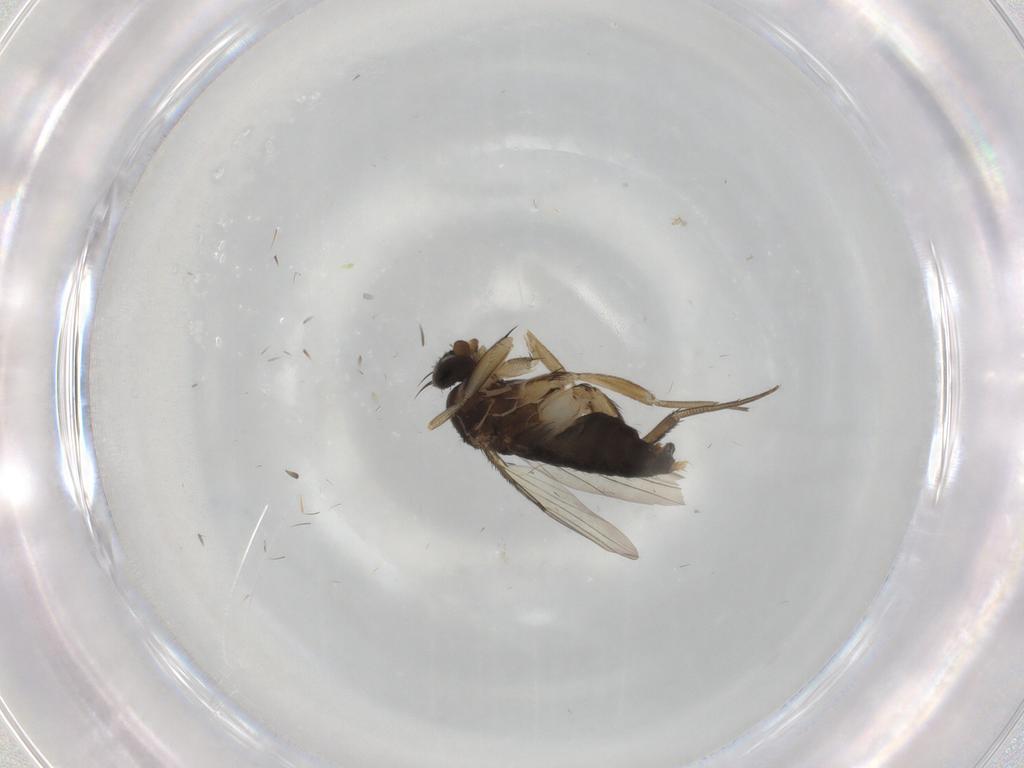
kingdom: Animalia
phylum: Arthropoda
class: Insecta
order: Diptera
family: Phoridae
